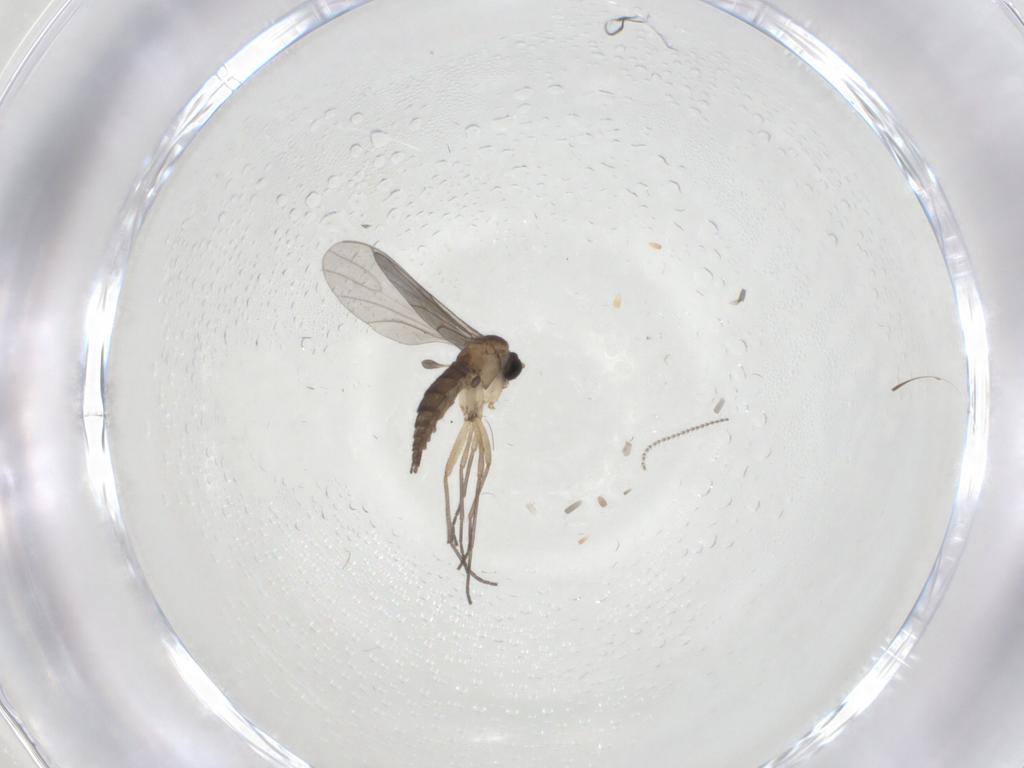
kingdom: Animalia
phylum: Arthropoda
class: Insecta
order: Diptera
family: Sciaridae
